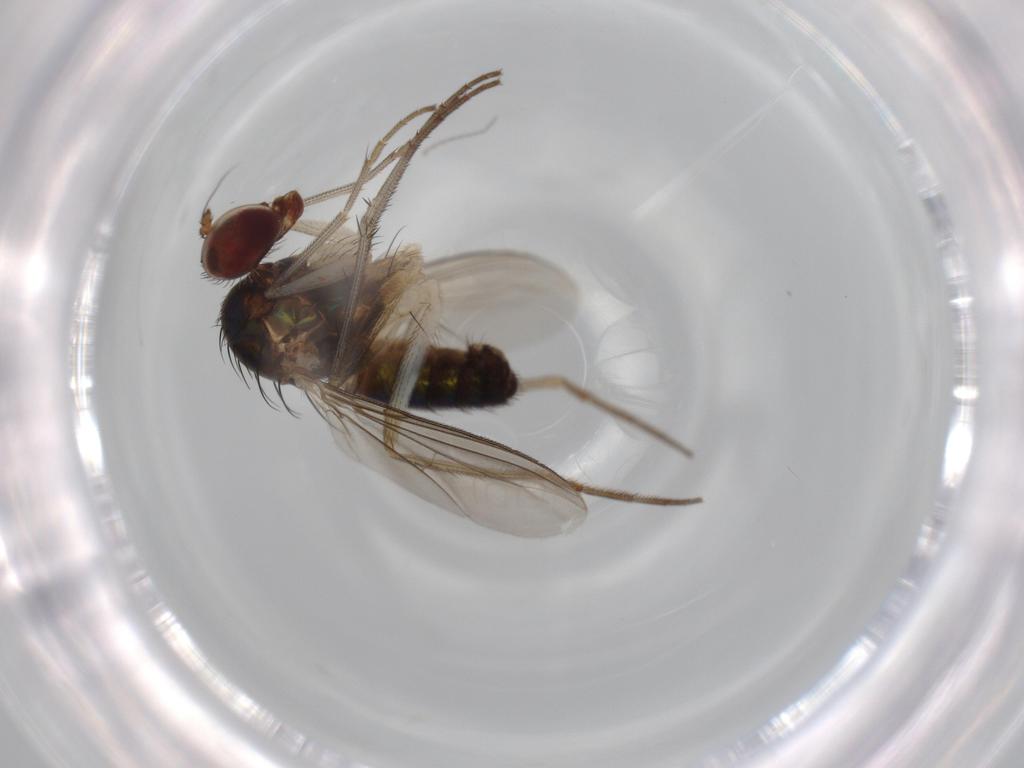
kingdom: Animalia
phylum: Arthropoda
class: Insecta
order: Diptera
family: Dolichopodidae
